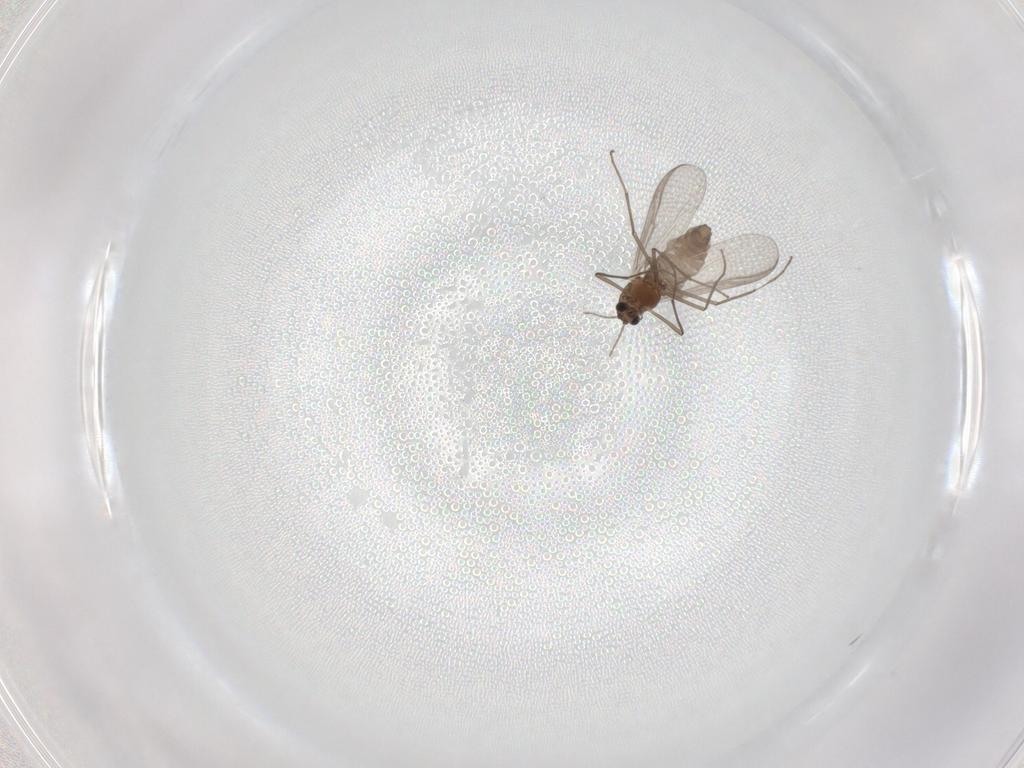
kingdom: Animalia
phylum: Arthropoda
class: Insecta
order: Diptera
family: Chironomidae
